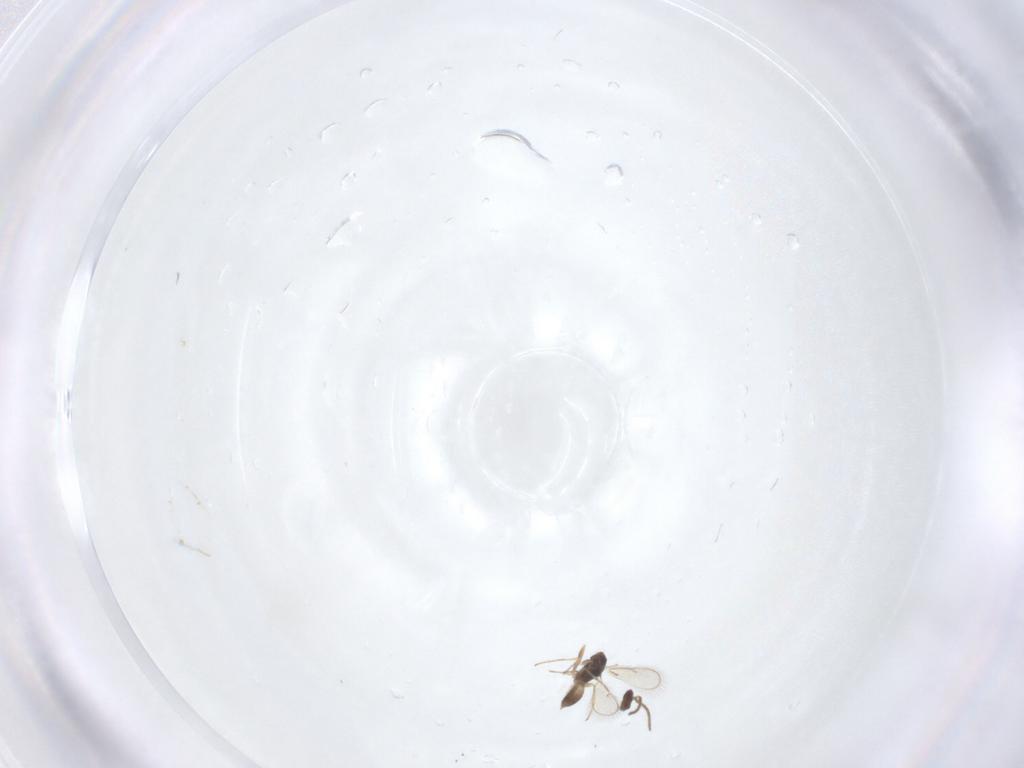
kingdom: Animalia
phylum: Arthropoda
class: Insecta
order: Hymenoptera
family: Eulophidae
